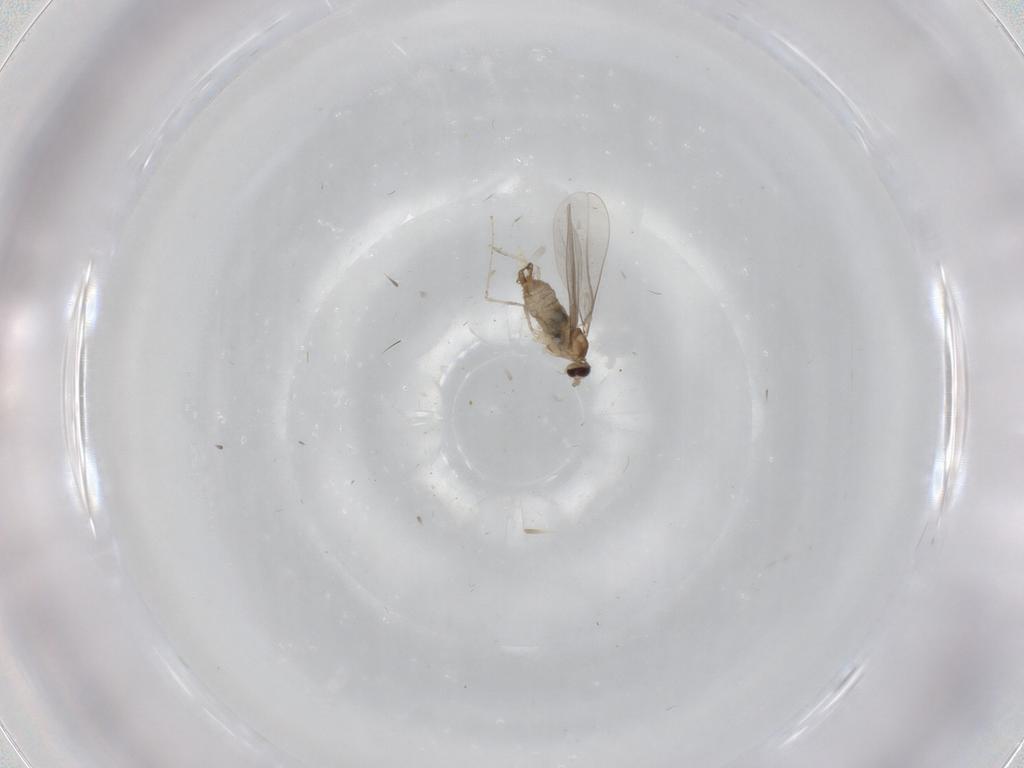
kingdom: Animalia
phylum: Arthropoda
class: Insecta
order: Diptera
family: Cecidomyiidae
